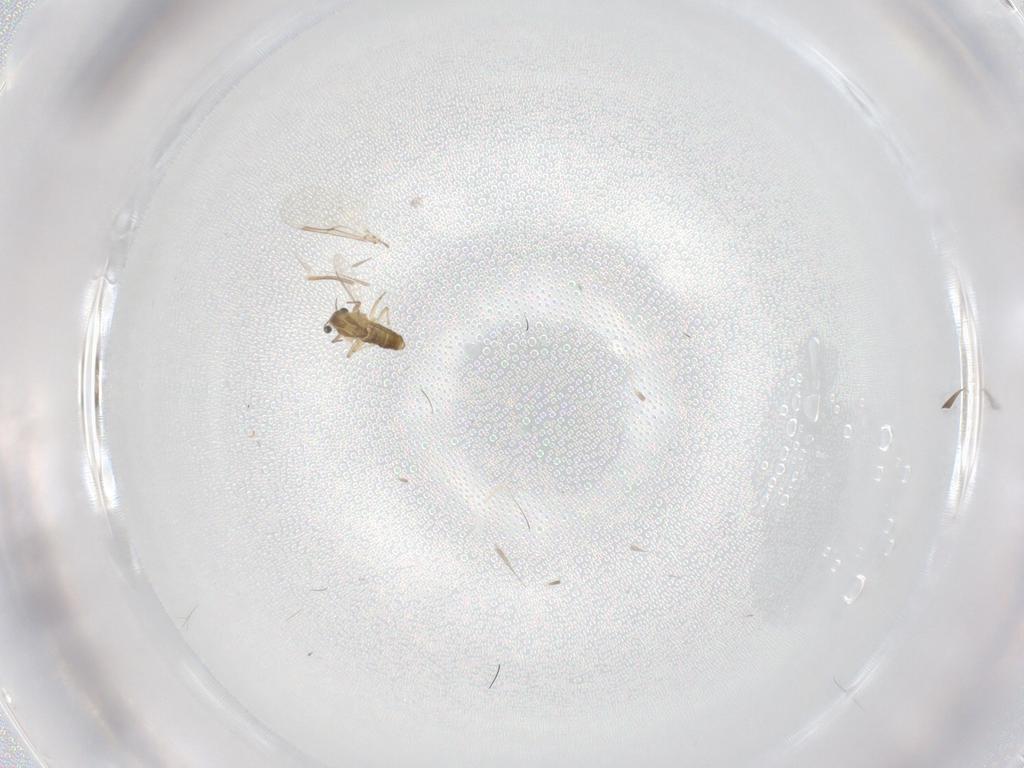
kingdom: Animalia
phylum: Arthropoda
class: Insecta
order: Diptera
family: Chironomidae
